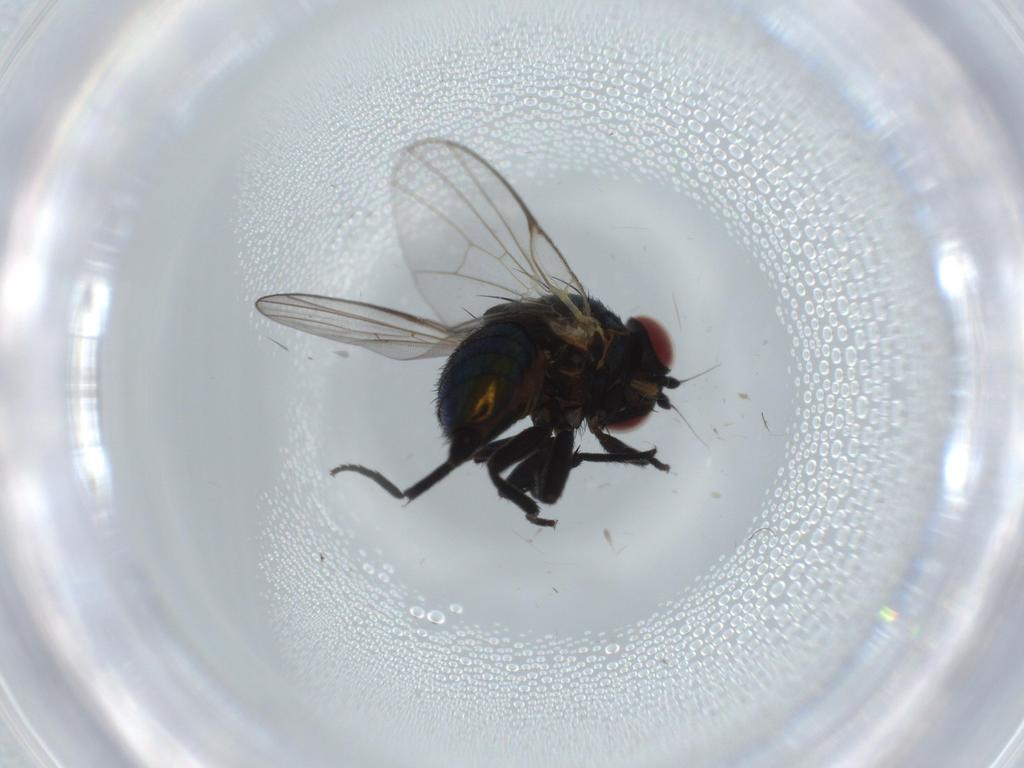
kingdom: Animalia
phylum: Arthropoda
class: Insecta
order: Diptera
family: Agromyzidae
